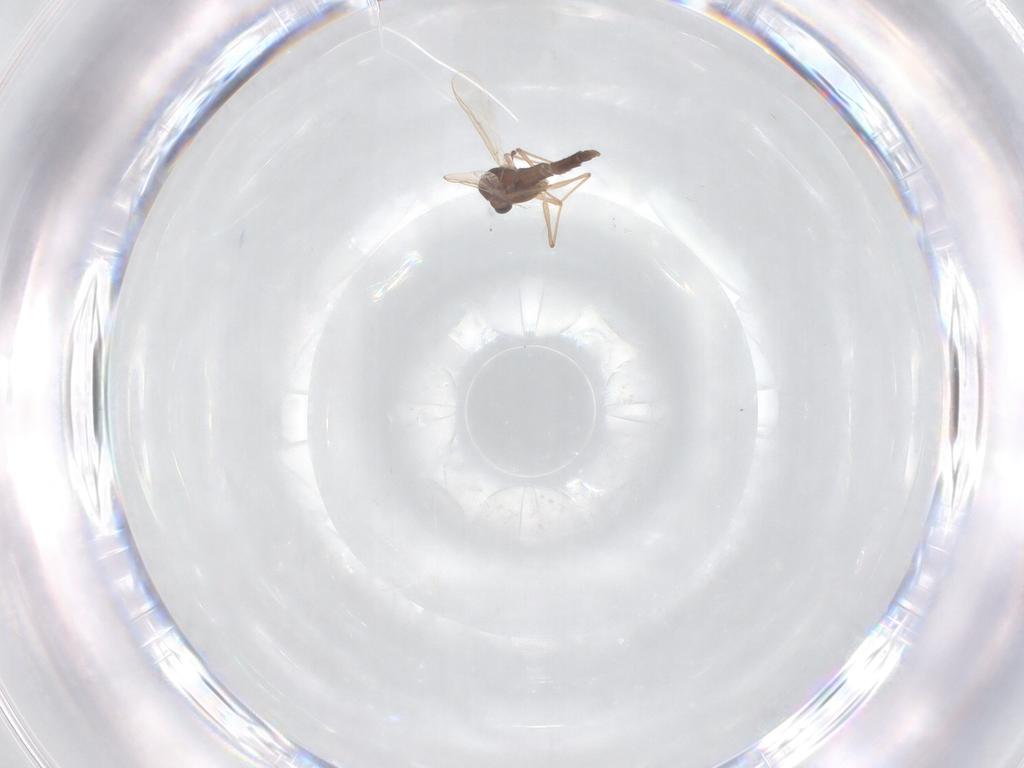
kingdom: Animalia
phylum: Arthropoda
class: Insecta
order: Diptera
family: Chironomidae
